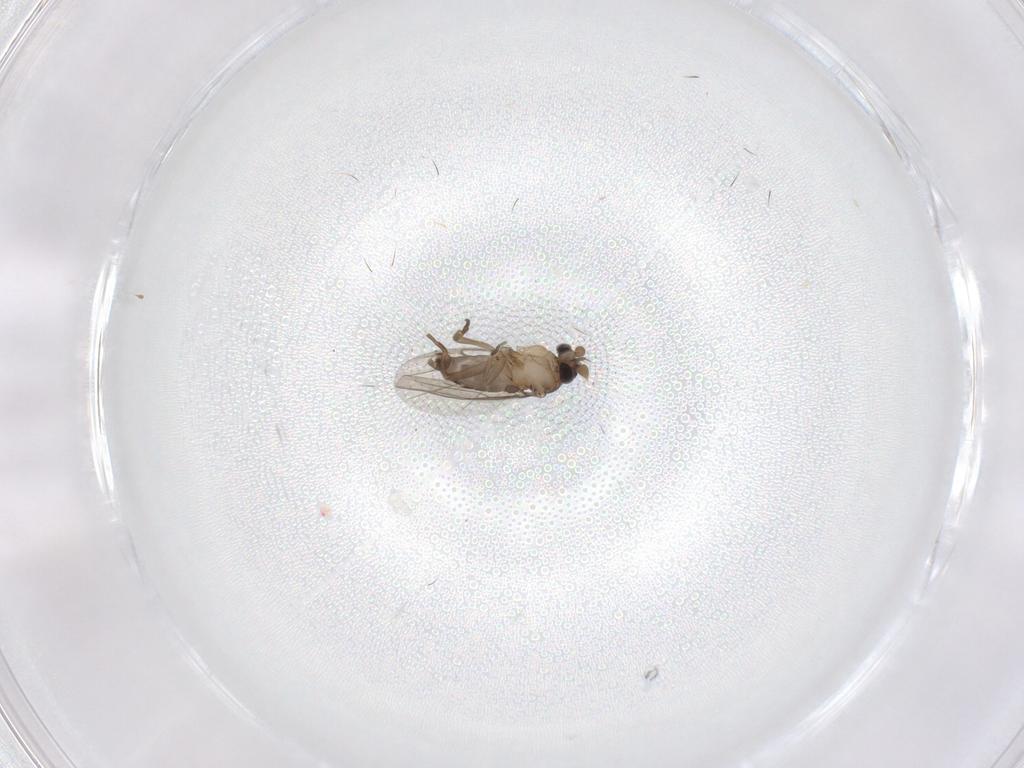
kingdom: Animalia
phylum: Arthropoda
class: Insecta
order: Diptera
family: Phoridae
